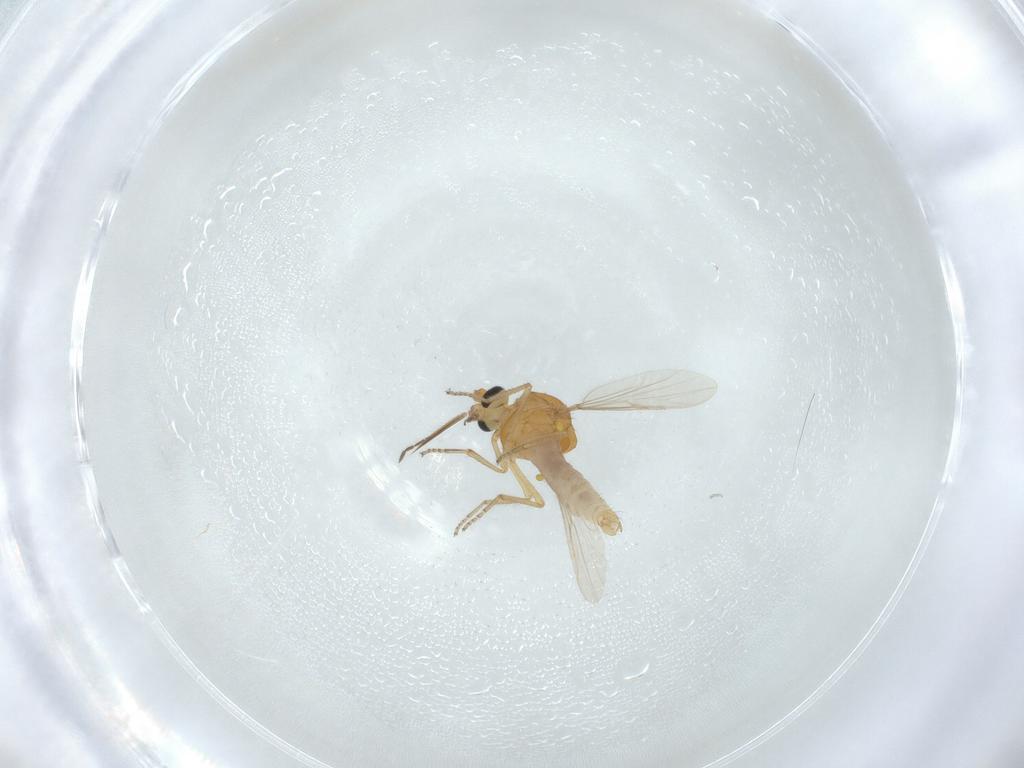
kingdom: Animalia
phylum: Arthropoda
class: Insecta
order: Diptera
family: Ceratopogonidae
